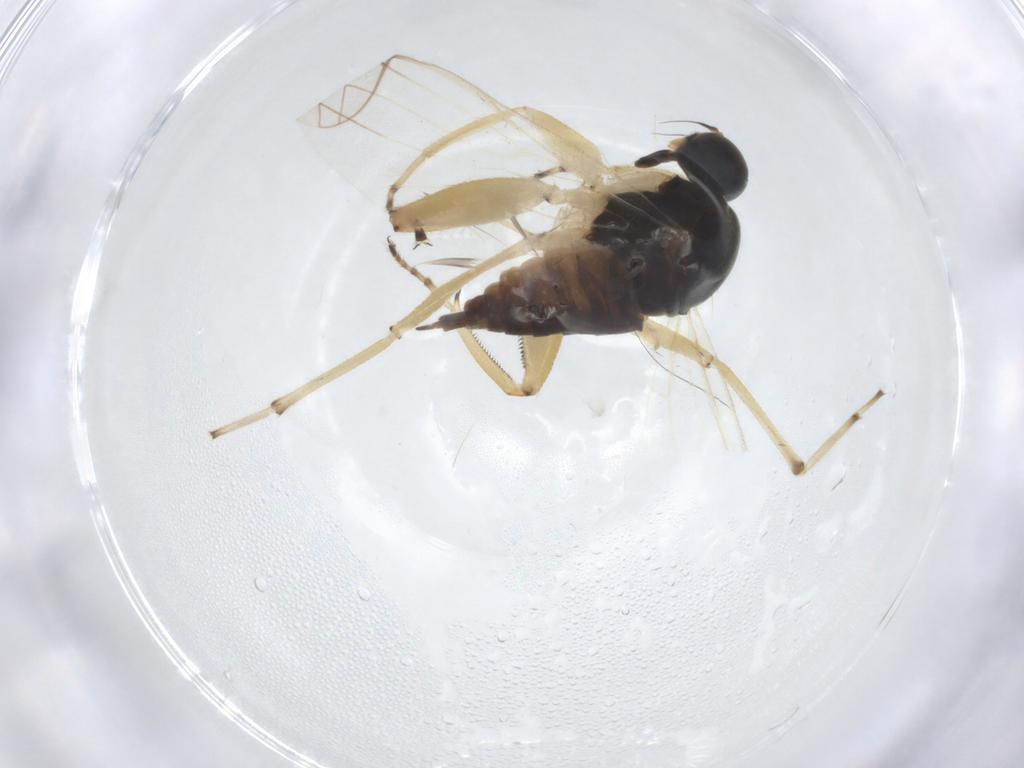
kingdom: Animalia
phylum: Arthropoda
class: Insecta
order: Diptera
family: Hybotidae
